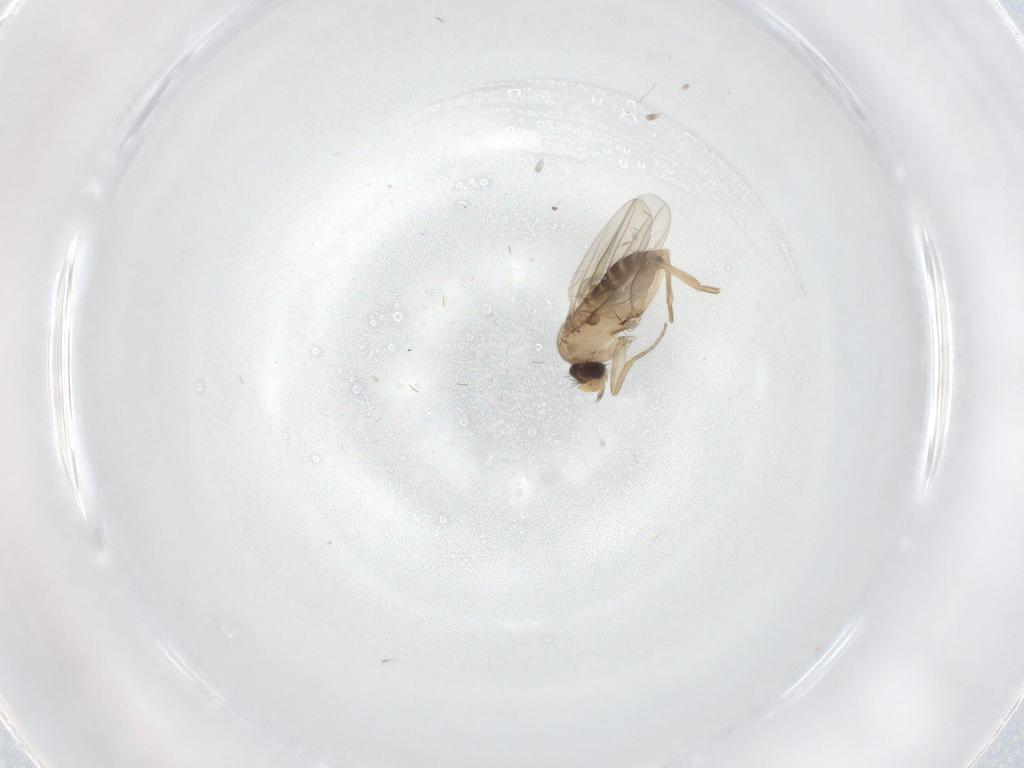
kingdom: Animalia
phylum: Arthropoda
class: Insecta
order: Diptera
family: Phoridae
